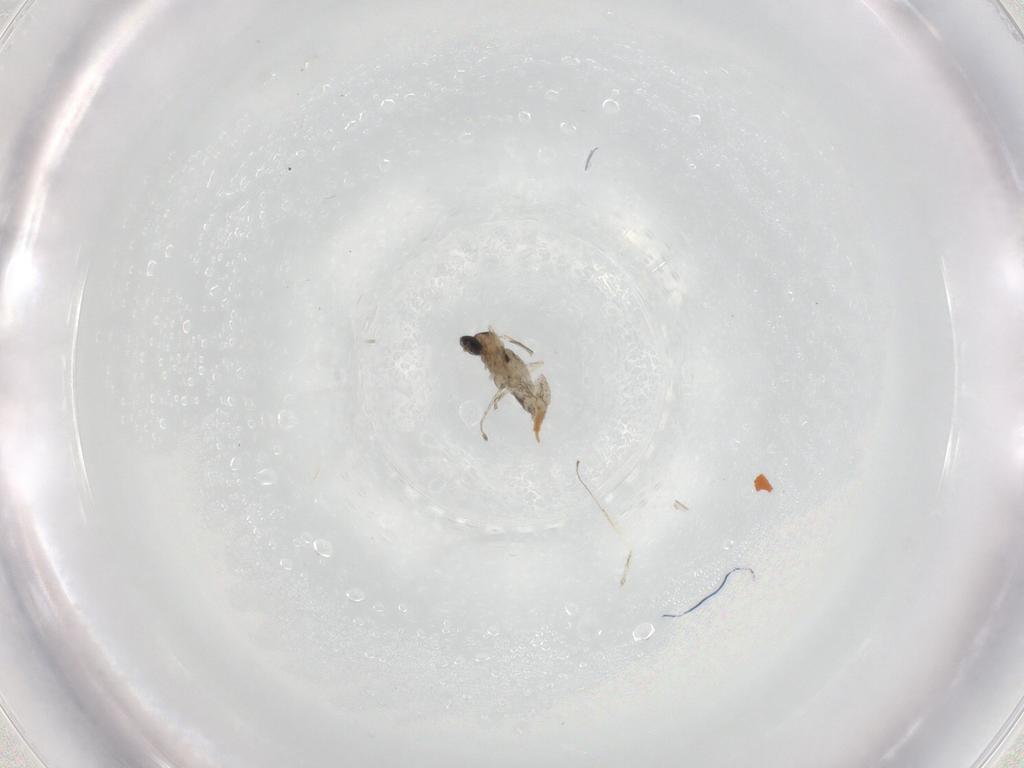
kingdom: Animalia
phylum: Arthropoda
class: Insecta
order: Diptera
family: Cecidomyiidae
